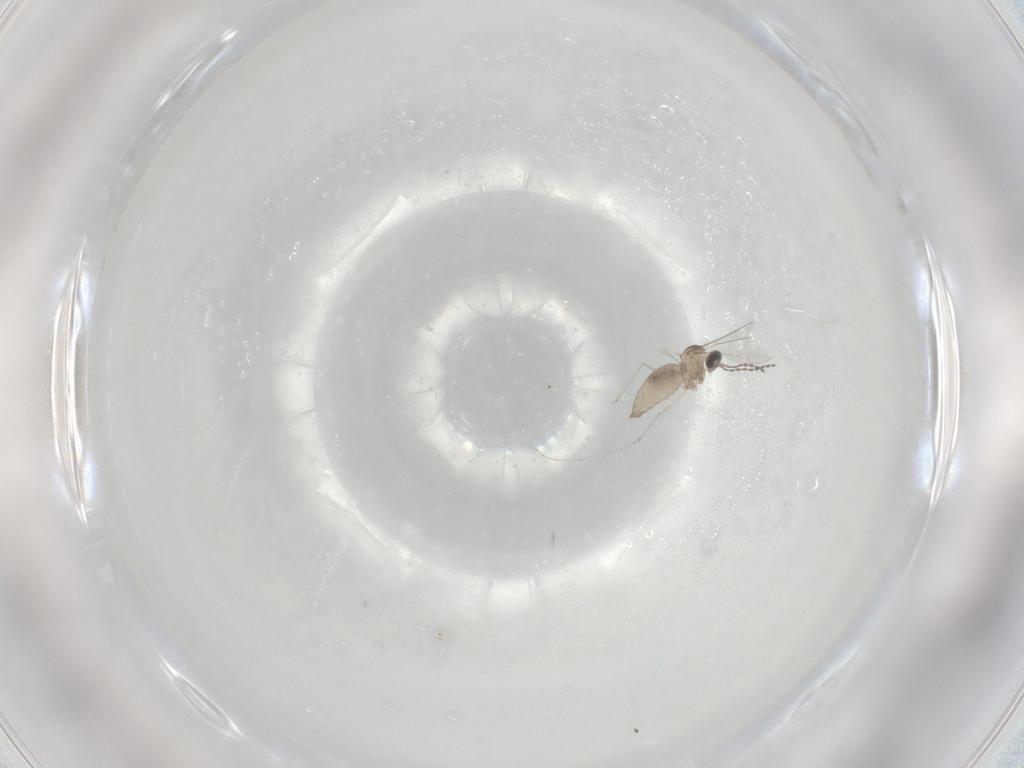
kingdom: Animalia
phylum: Arthropoda
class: Insecta
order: Diptera
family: Cecidomyiidae
